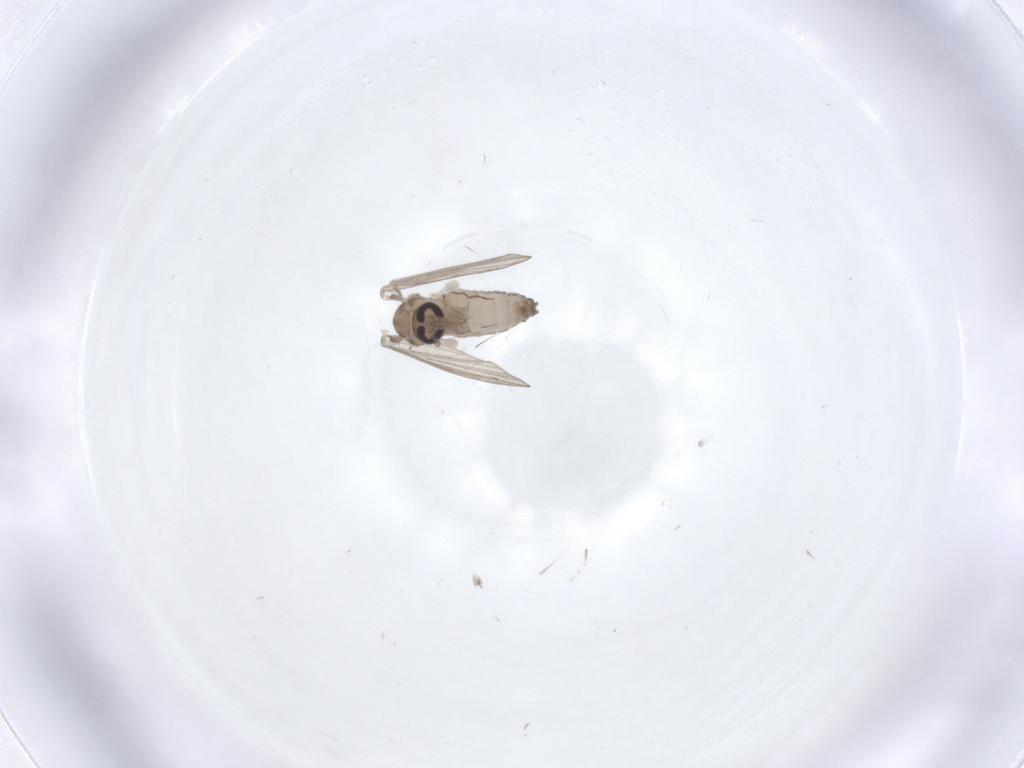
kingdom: Animalia
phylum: Arthropoda
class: Insecta
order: Diptera
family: Psychodidae
